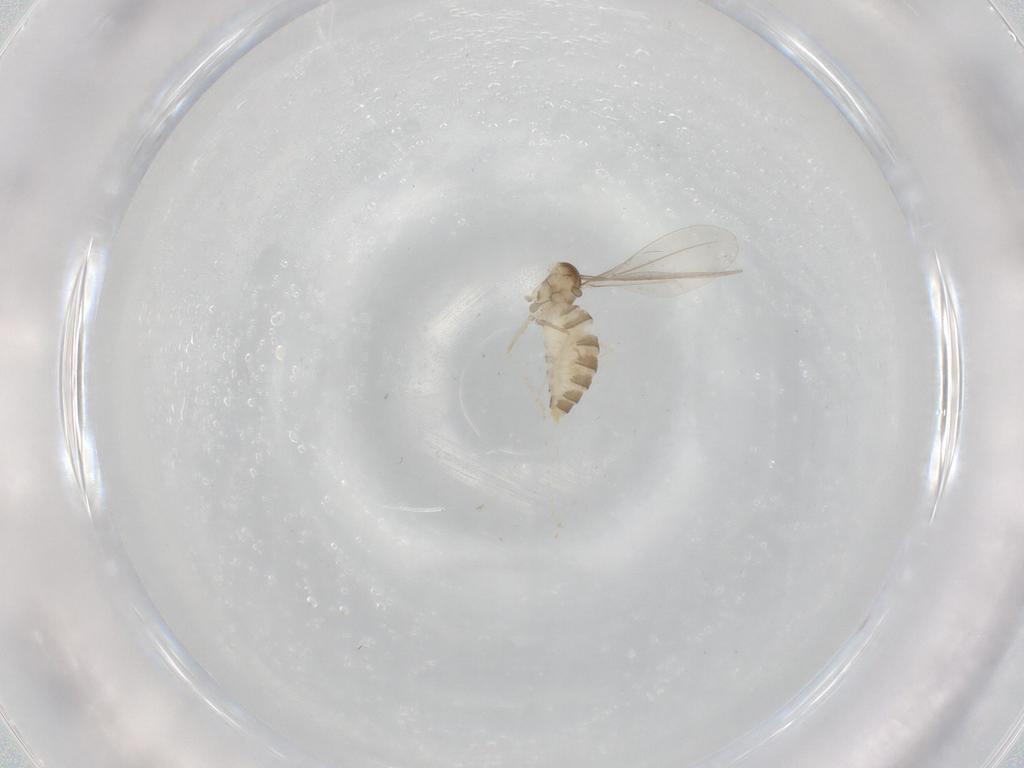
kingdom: Animalia
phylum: Arthropoda
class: Insecta
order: Diptera
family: Cecidomyiidae
